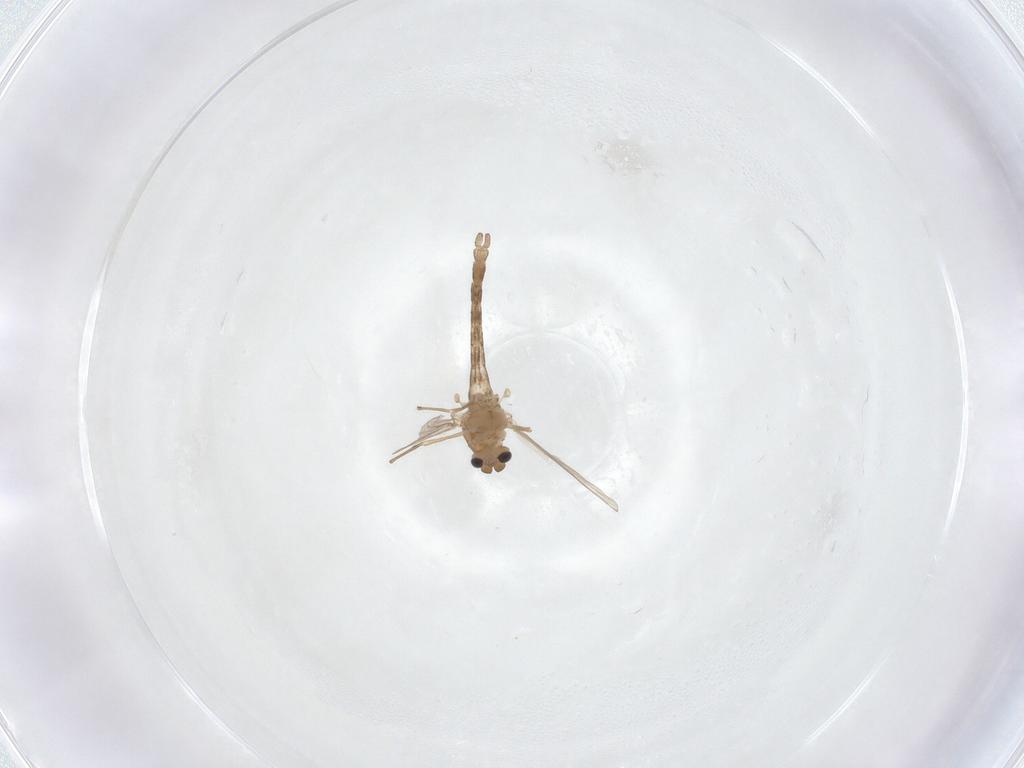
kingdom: Animalia
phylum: Arthropoda
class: Insecta
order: Diptera
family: Chironomidae
